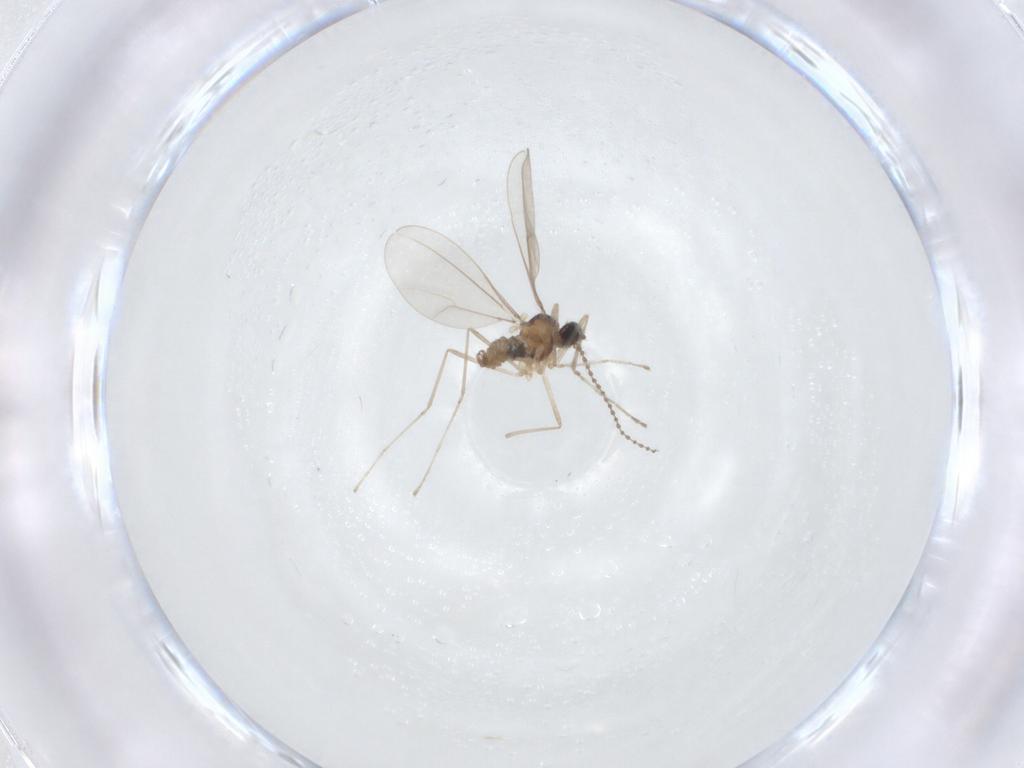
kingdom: Animalia
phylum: Arthropoda
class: Insecta
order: Diptera
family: Cecidomyiidae
